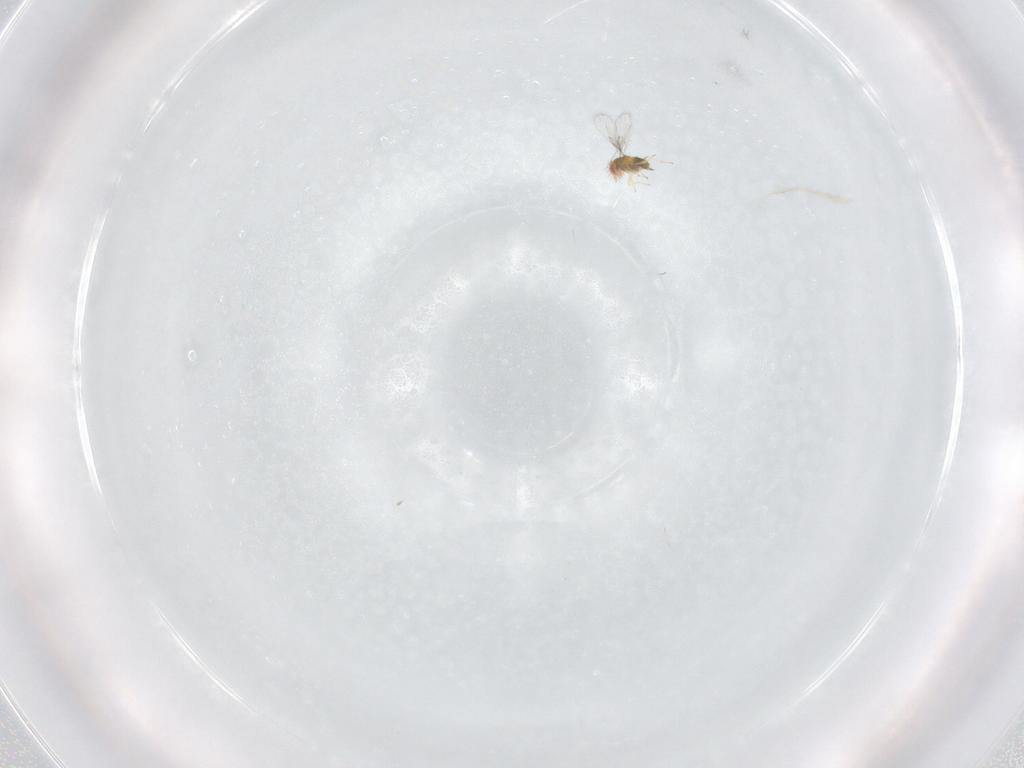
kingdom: Animalia
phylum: Arthropoda
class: Insecta
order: Hymenoptera
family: Trichogrammatidae
